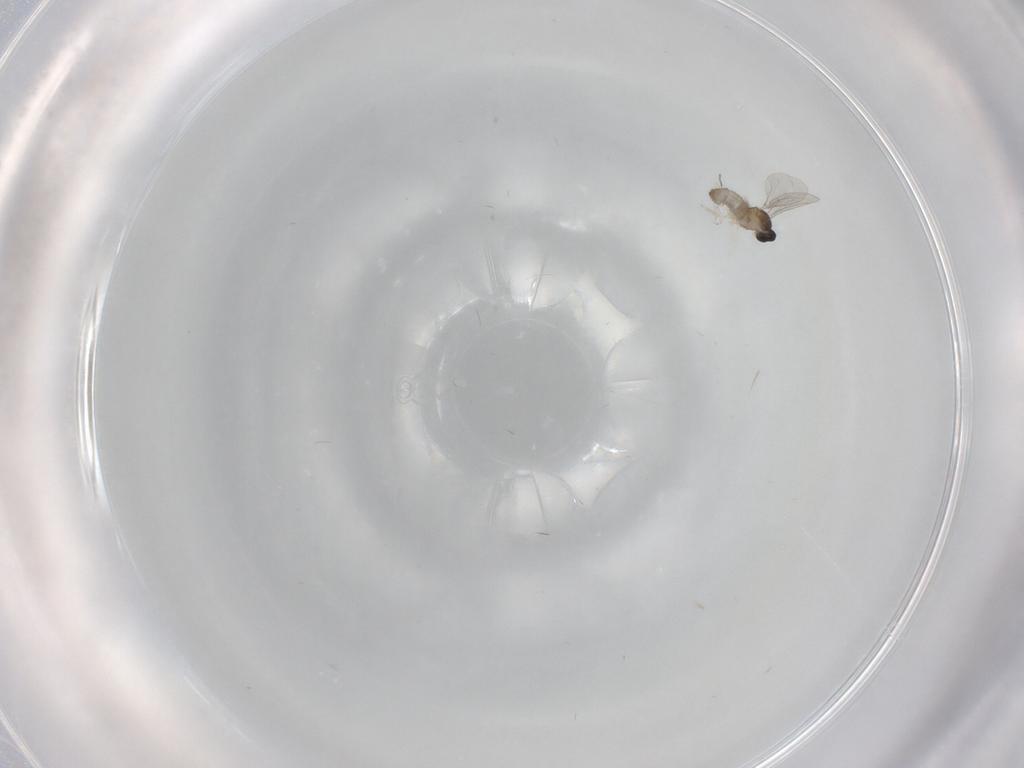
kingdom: Animalia
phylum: Arthropoda
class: Insecta
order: Diptera
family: Cecidomyiidae
